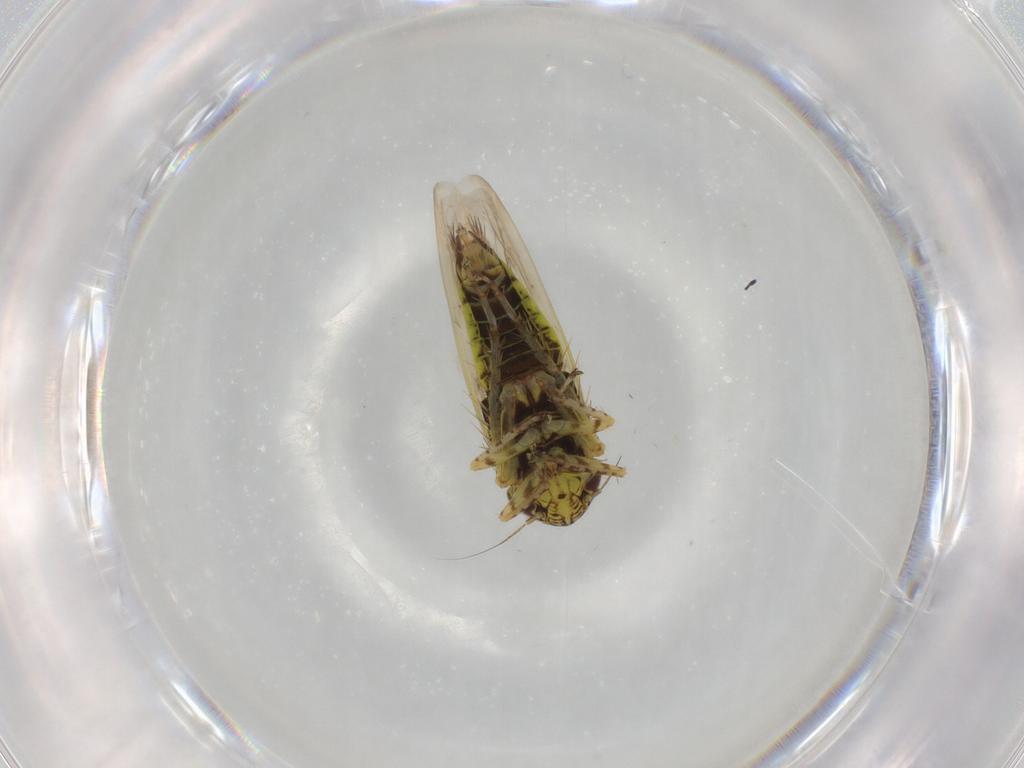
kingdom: Animalia
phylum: Arthropoda
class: Insecta
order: Hemiptera
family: Cicadellidae
